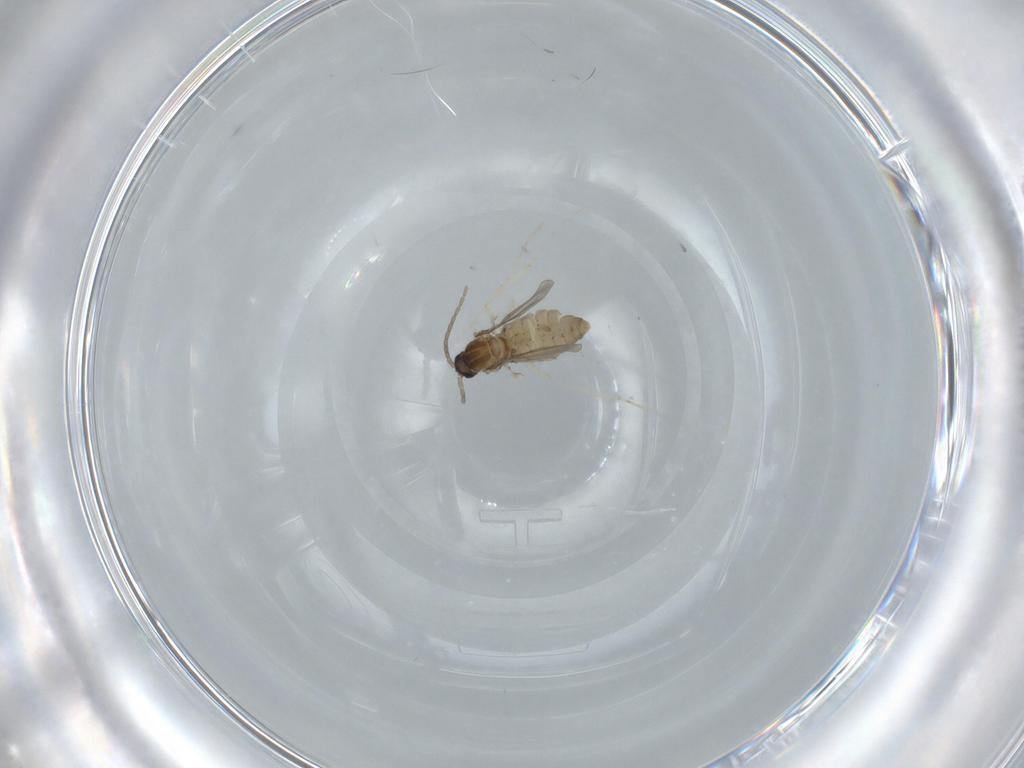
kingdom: Animalia
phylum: Arthropoda
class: Insecta
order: Diptera
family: Cecidomyiidae
